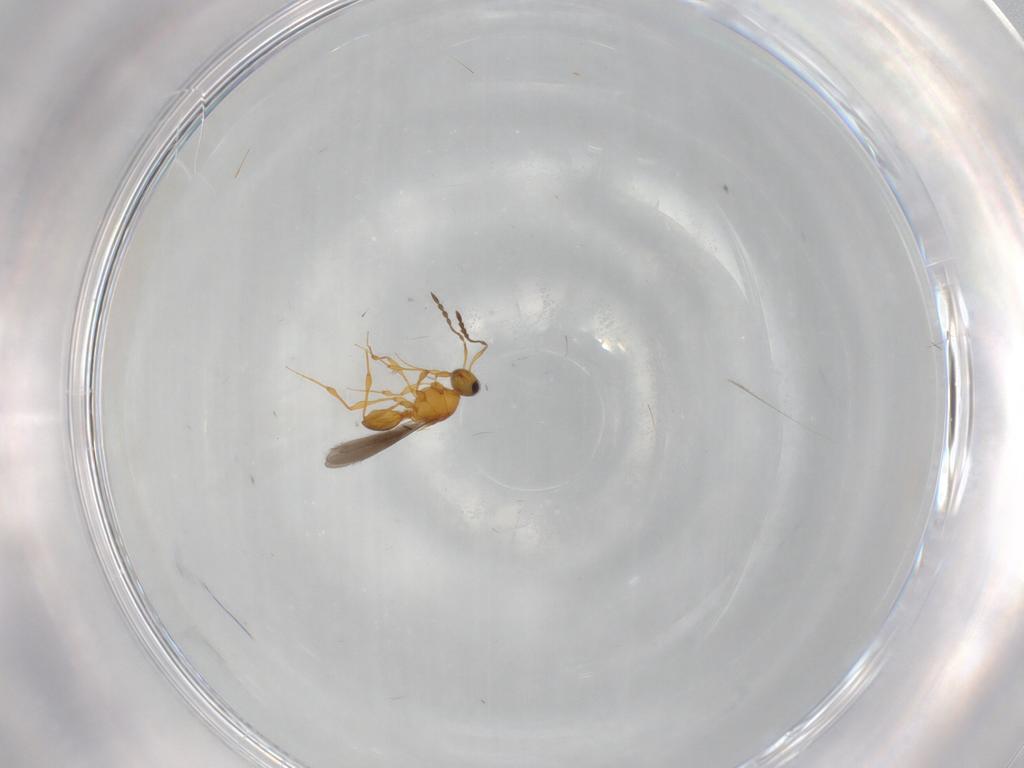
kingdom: Animalia
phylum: Arthropoda
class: Insecta
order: Hymenoptera
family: Platygastridae
